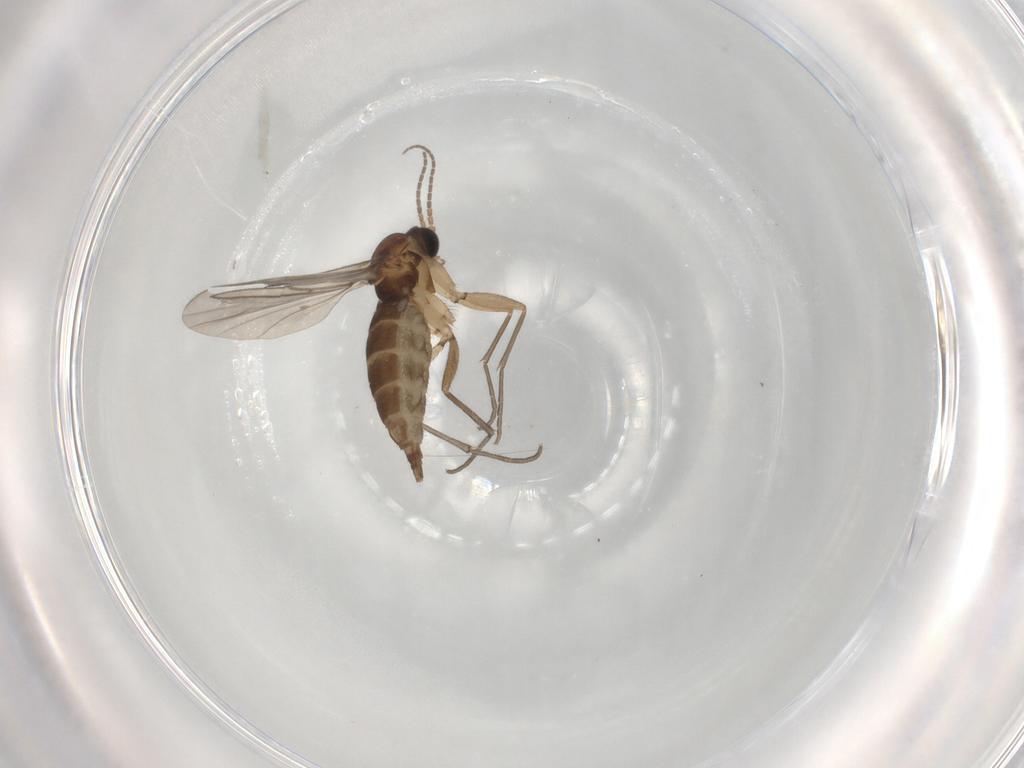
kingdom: Animalia
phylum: Arthropoda
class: Insecta
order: Diptera
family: Sciaridae
